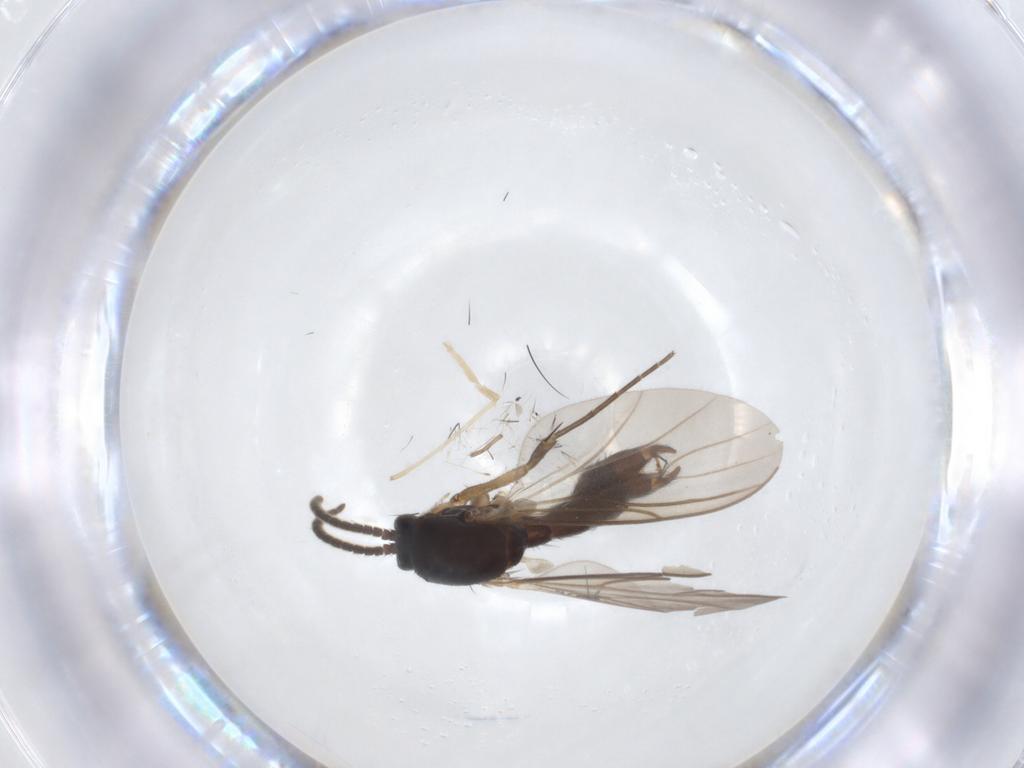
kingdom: Animalia
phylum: Arthropoda
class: Insecta
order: Diptera
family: Mycetophilidae
